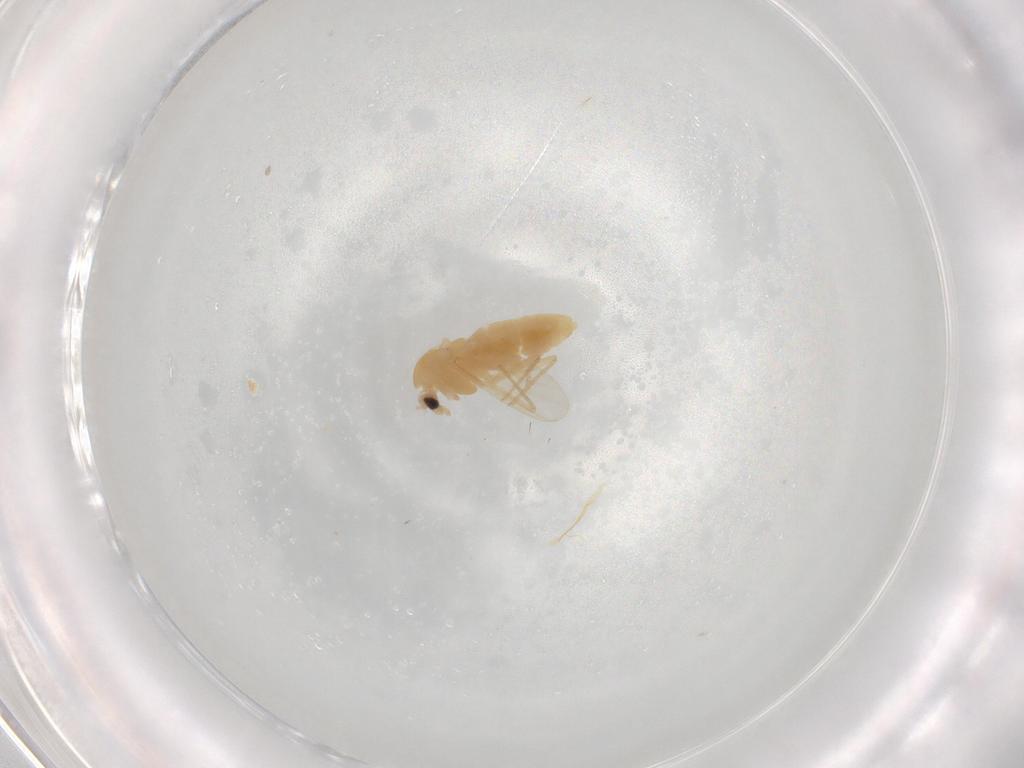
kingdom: Animalia
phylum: Arthropoda
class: Insecta
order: Diptera
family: Chironomidae
